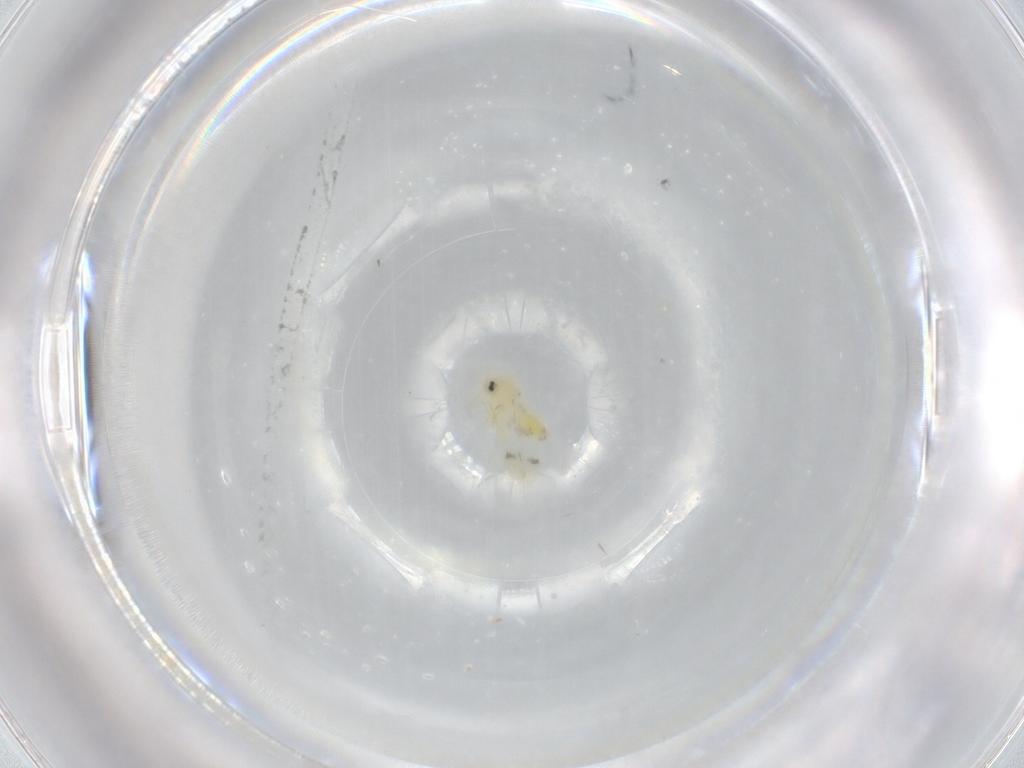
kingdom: Animalia
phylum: Arthropoda
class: Insecta
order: Hemiptera
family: Aleyrodidae
